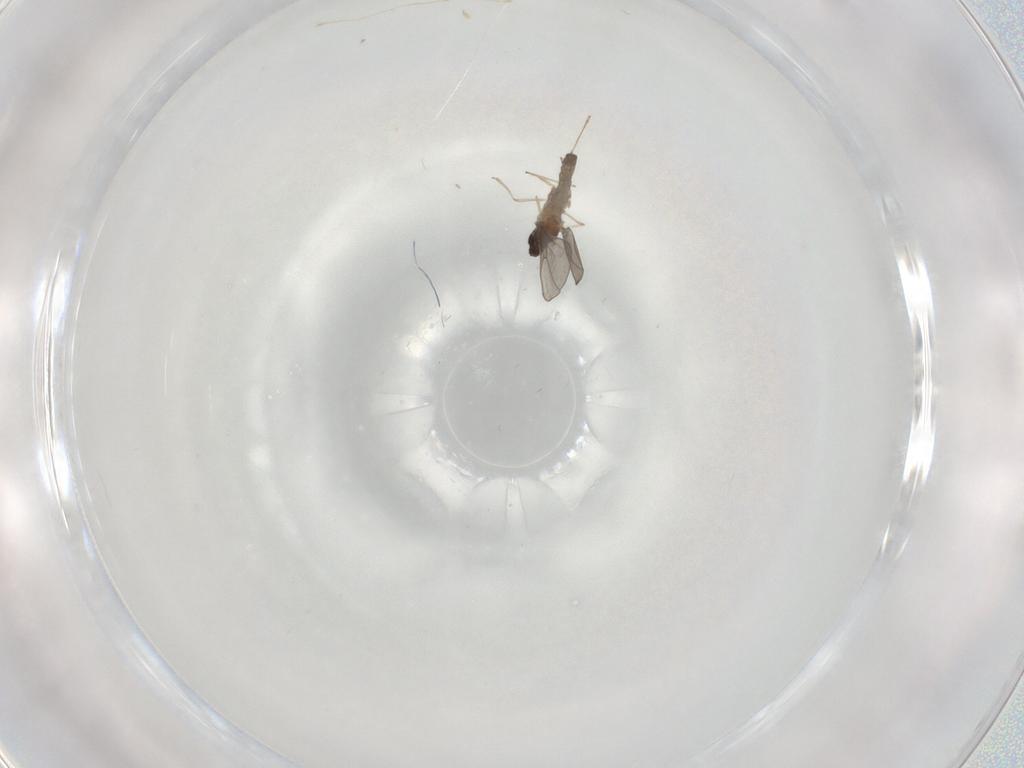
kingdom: Animalia
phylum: Arthropoda
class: Insecta
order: Diptera
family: Cecidomyiidae
